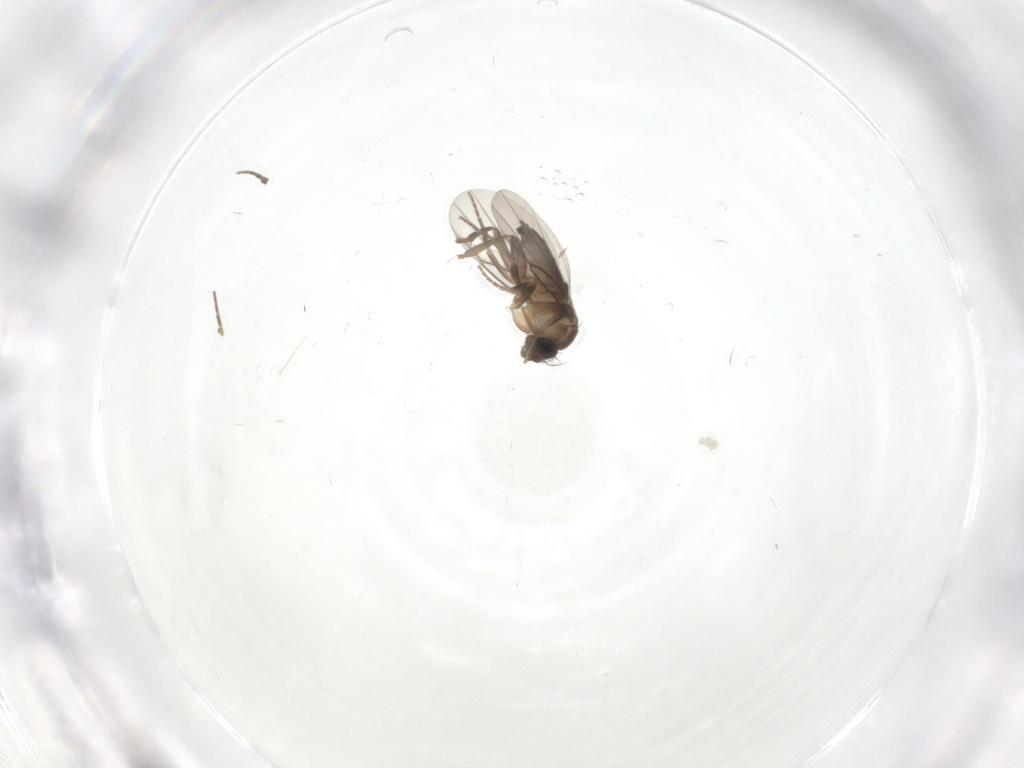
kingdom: Animalia
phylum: Arthropoda
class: Insecta
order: Diptera
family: Phoridae
